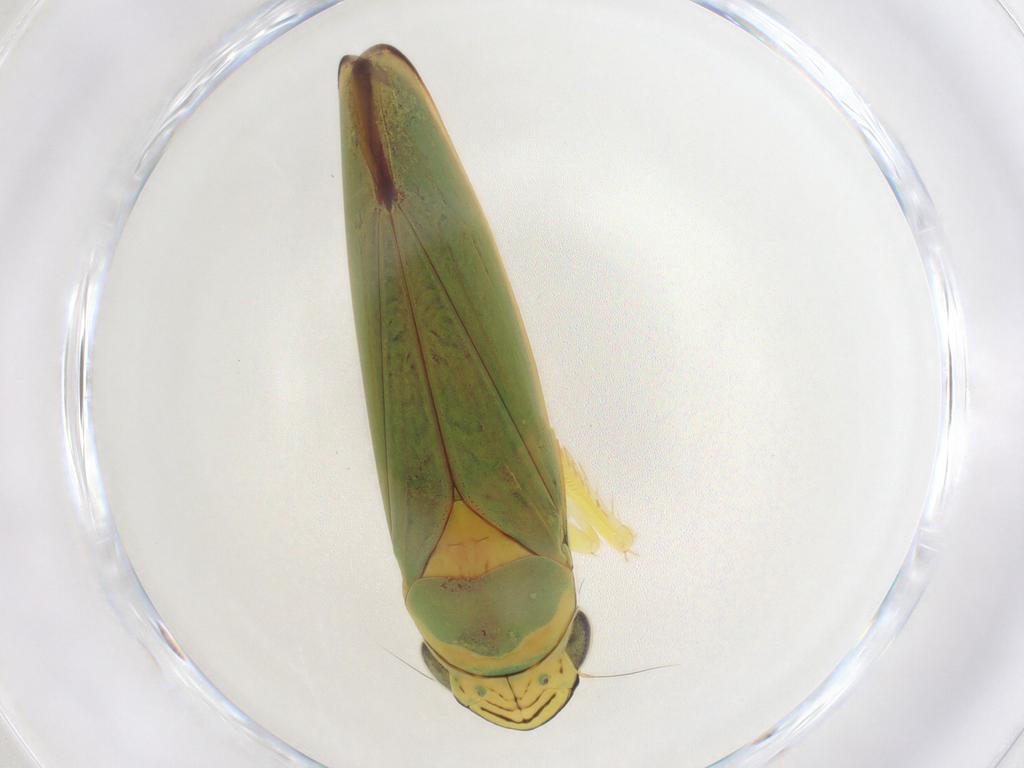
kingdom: Animalia
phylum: Arthropoda
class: Insecta
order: Hemiptera
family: Cicadellidae
